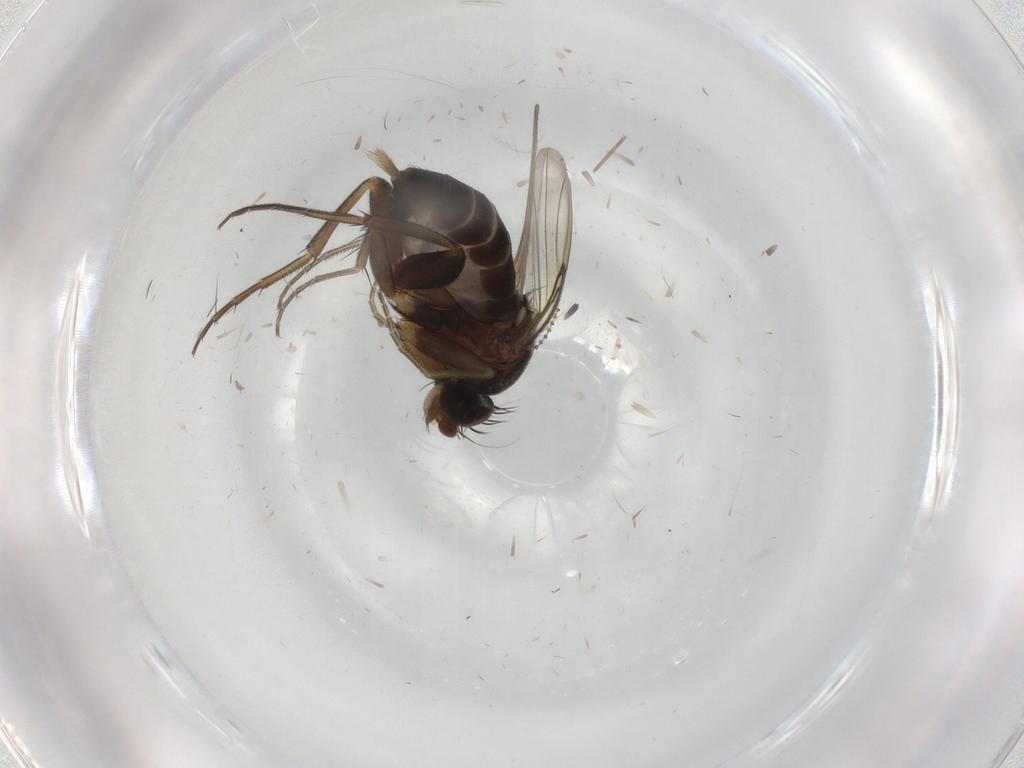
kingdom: Animalia
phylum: Arthropoda
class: Insecta
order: Diptera
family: Phoridae
